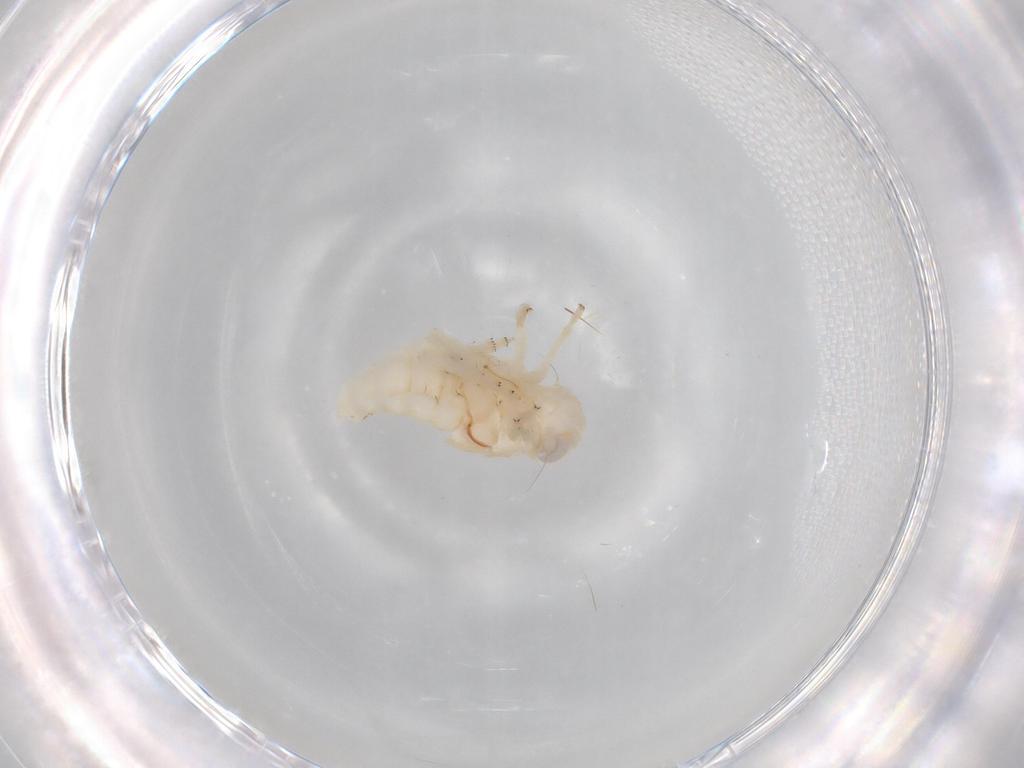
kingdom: Animalia
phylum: Arthropoda
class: Insecta
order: Hemiptera
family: Nogodinidae
